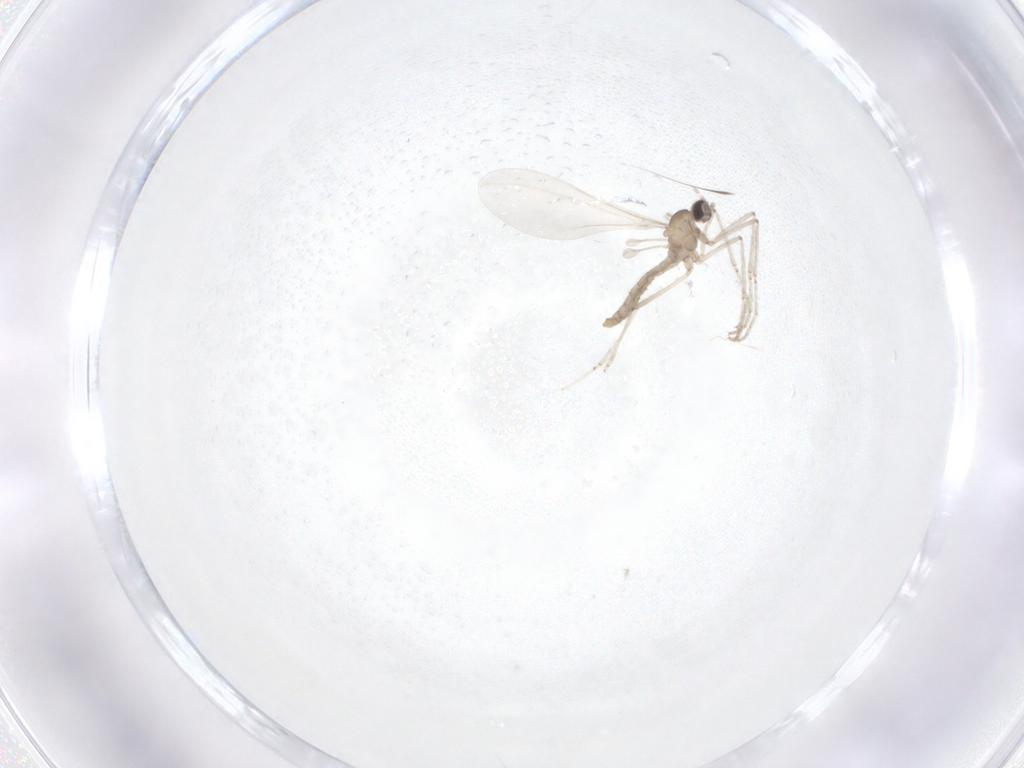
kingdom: Animalia
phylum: Arthropoda
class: Insecta
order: Diptera
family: Cecidomyiidae
